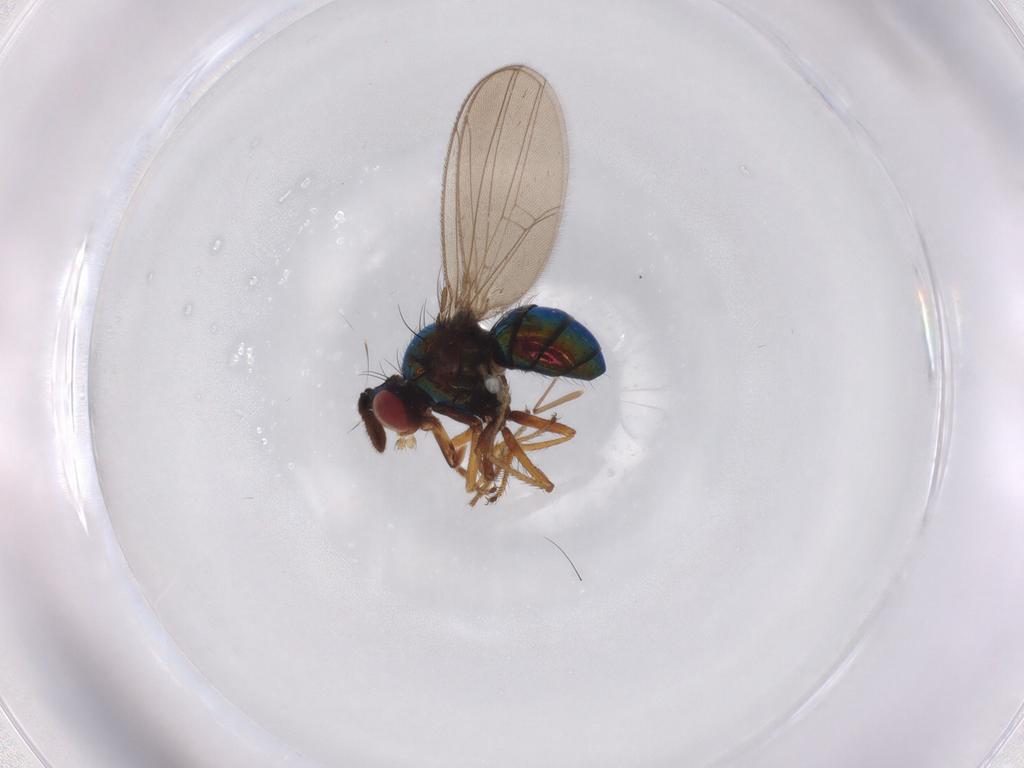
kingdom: Animalia
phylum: Arthropoda
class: Insecta
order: Diptera
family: Ephydridae
